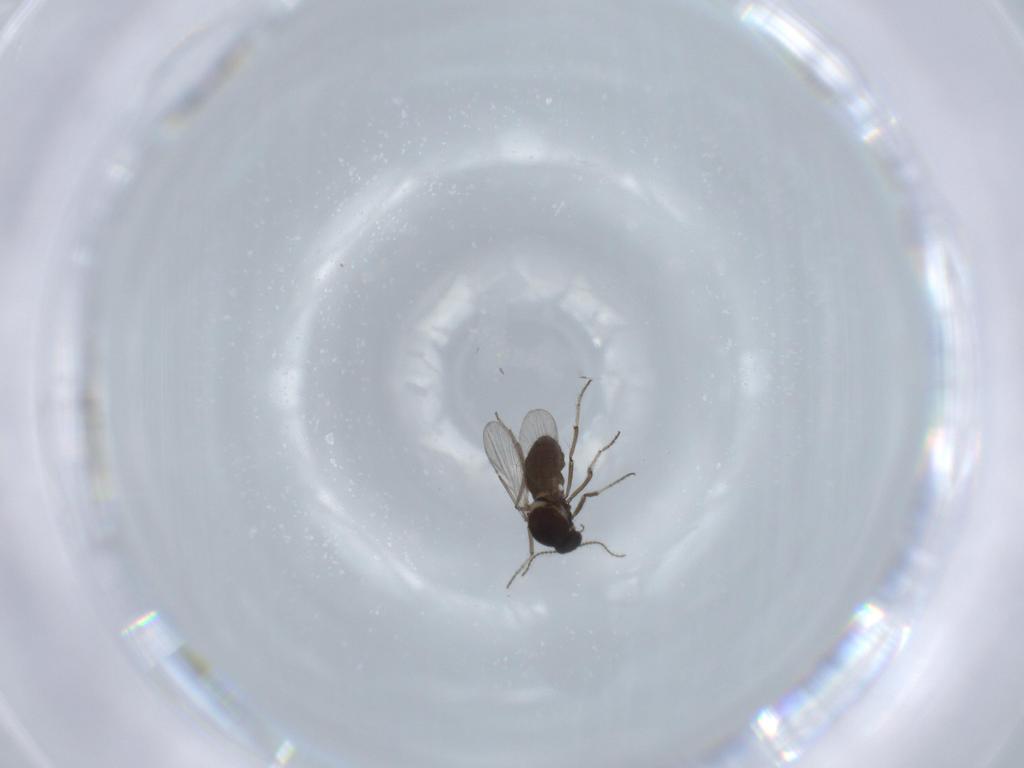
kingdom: Animalia
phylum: Arthropoda
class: Insecta
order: Diptera
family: Ceratopogonidae
